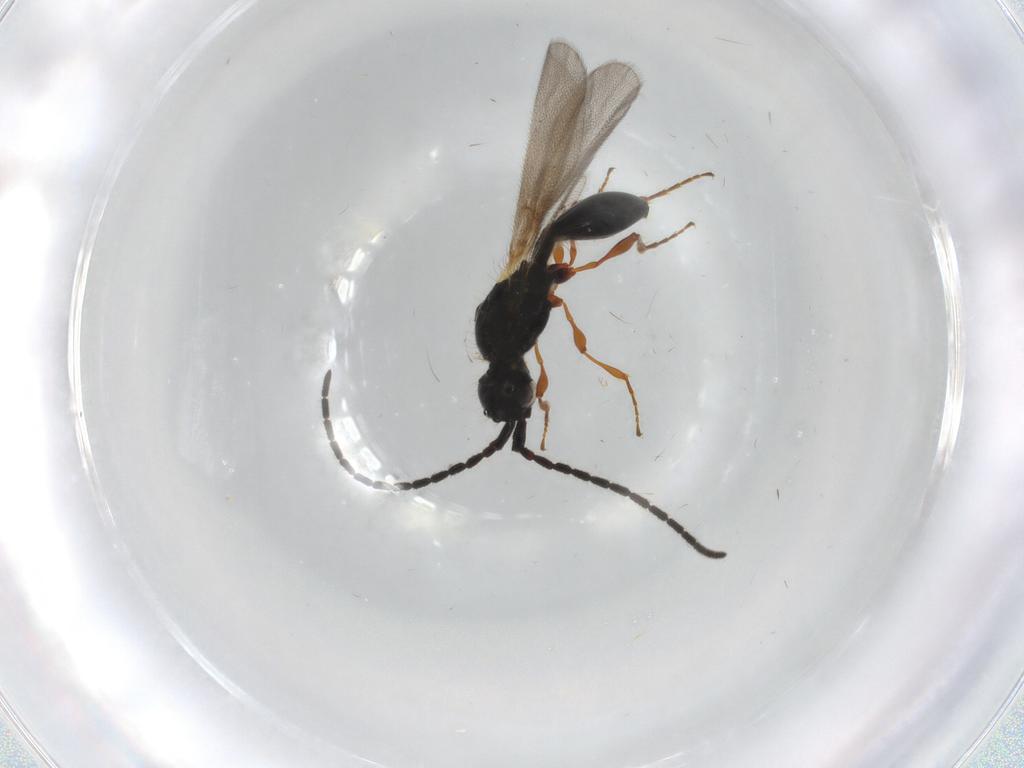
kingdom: Animalia
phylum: Arthropoda
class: Insecta
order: Hymenoptera
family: Diapriidae
